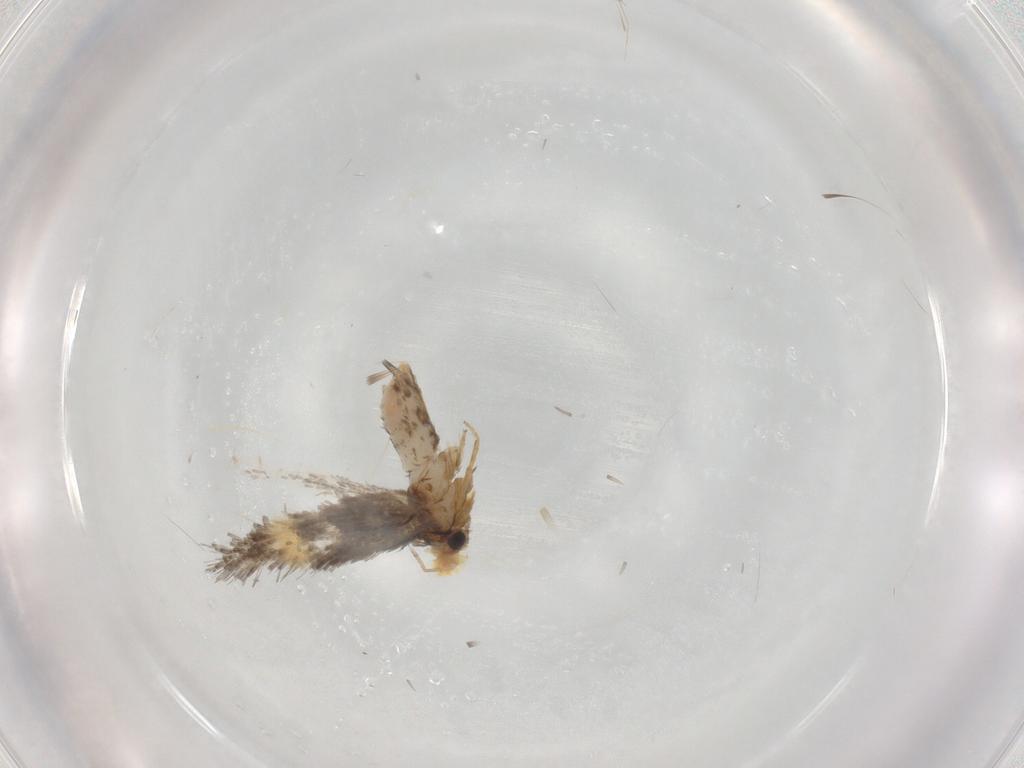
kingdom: Animalia
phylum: Arthropoda
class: Insecta
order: Lepidoptera
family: Nepticulidae
